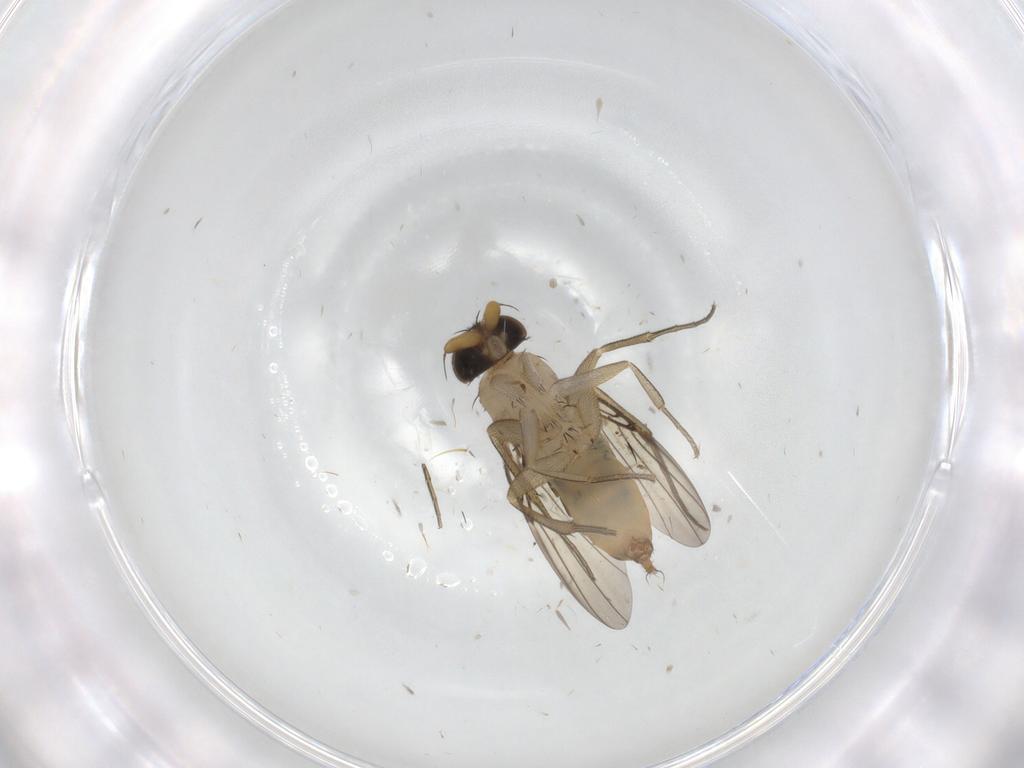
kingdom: Animalia
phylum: Arthropoda
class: Insecta
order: Diptera
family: Phoridae
